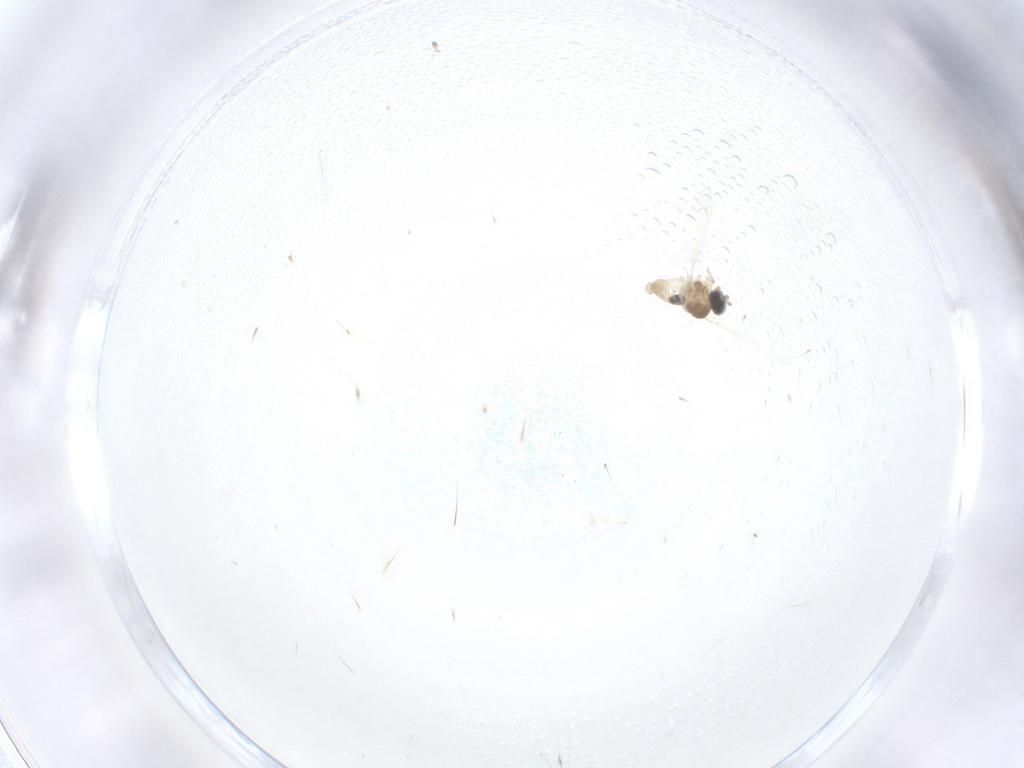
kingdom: Animalia
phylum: Arthropoda
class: Insecta
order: Diptera
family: Cecidomyiidae
